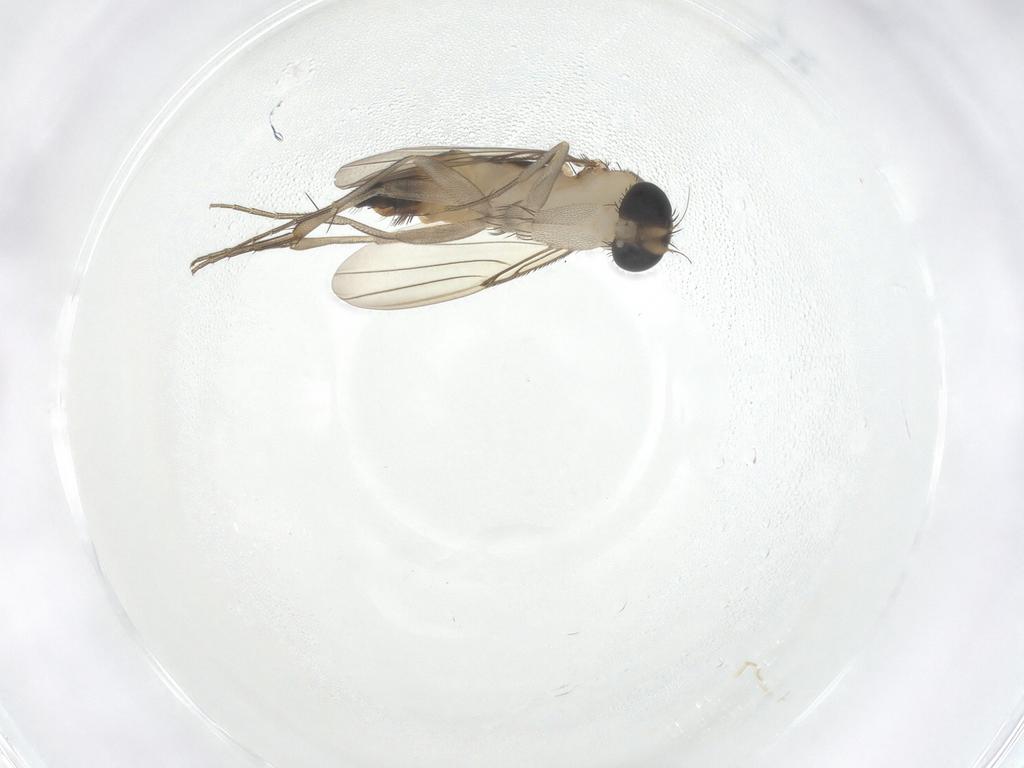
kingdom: Animalia
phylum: Arthropoda
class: Insecta
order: Diptera
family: Phoridae
